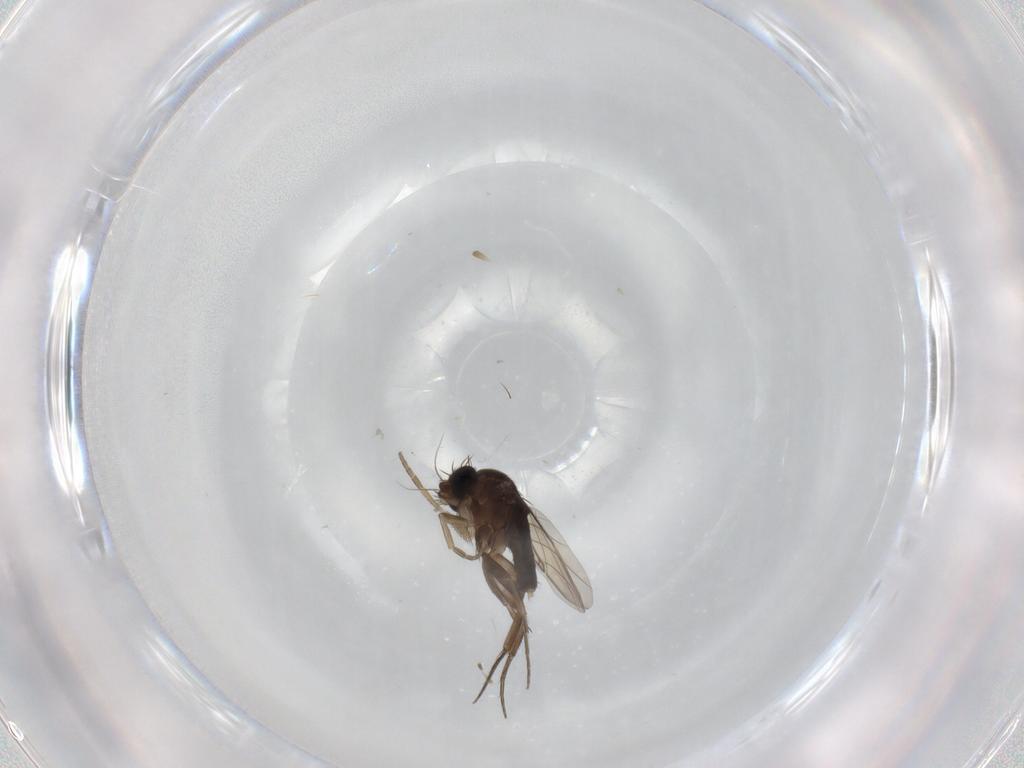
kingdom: Animalia
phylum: Arthropoda
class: Insecta
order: Diptera
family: Phoridae
